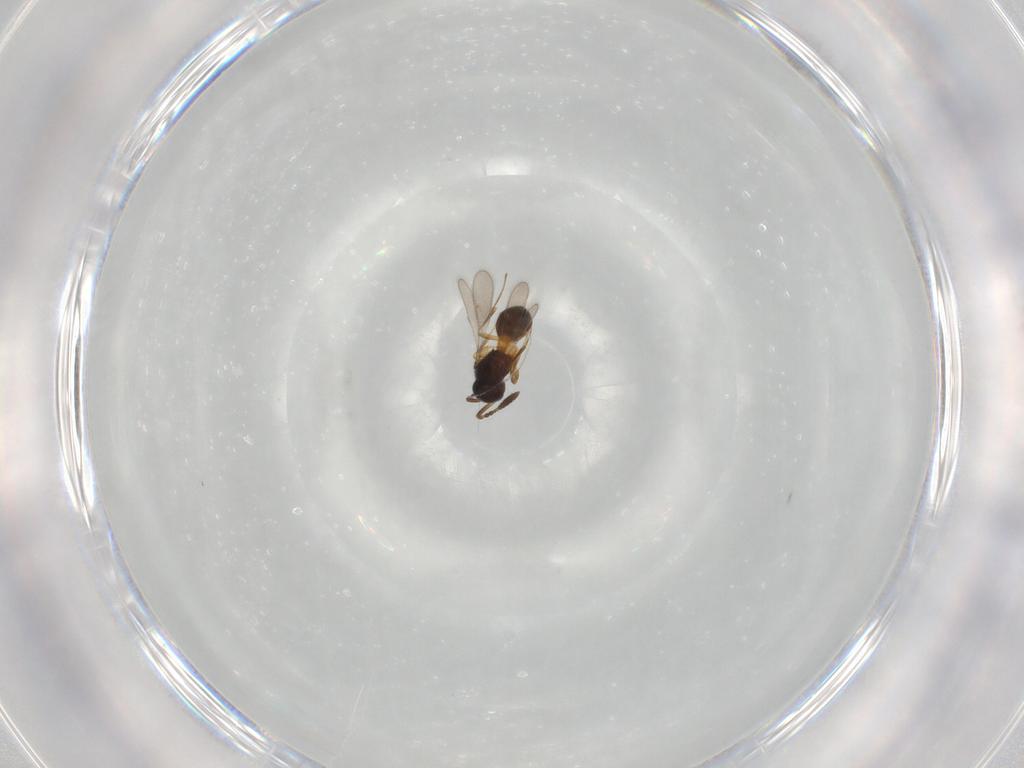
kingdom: Animalia
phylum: Arthropoda
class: Insecta
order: Hymenoptera
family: Scelionidae
